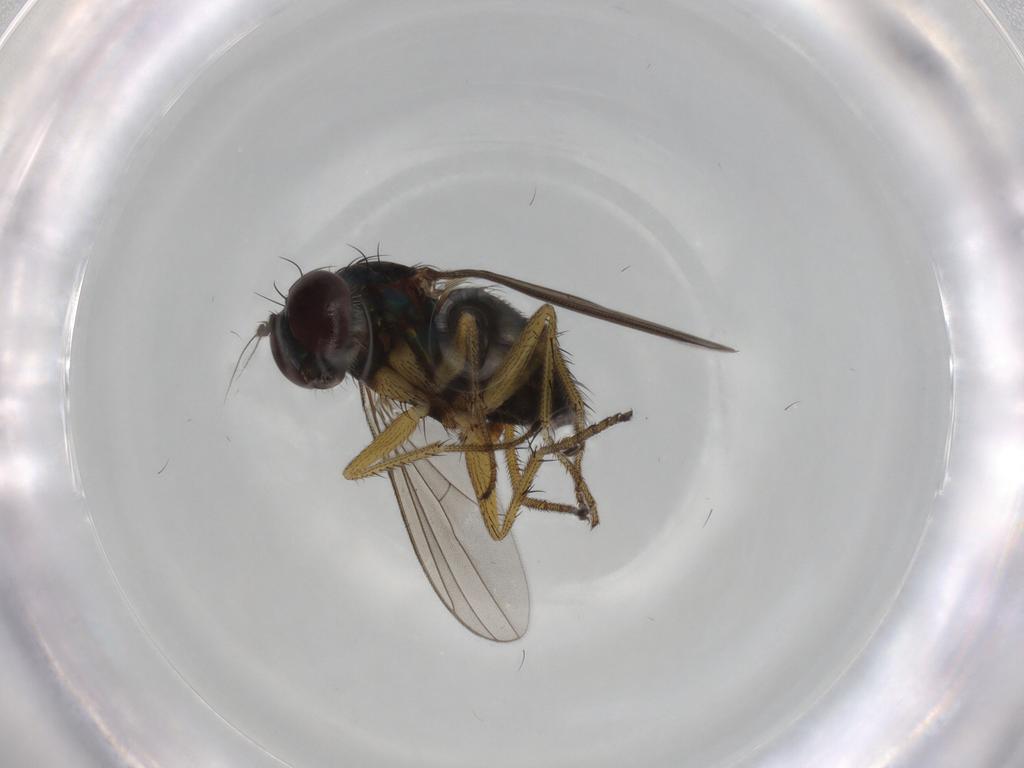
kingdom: Animalia
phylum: Arthropoda
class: Insecta
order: Diptera
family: Dolichopodidae
